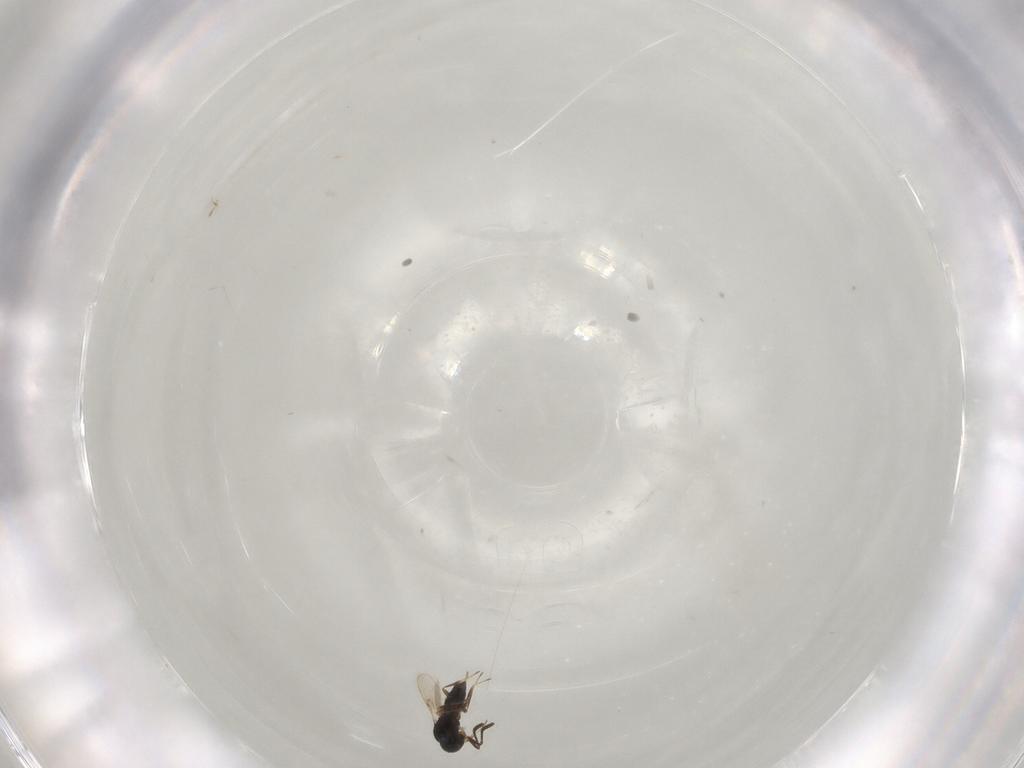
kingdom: Animalia
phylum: Arthropoda
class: Insecta
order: Hymenoptera
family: Scelionidae
